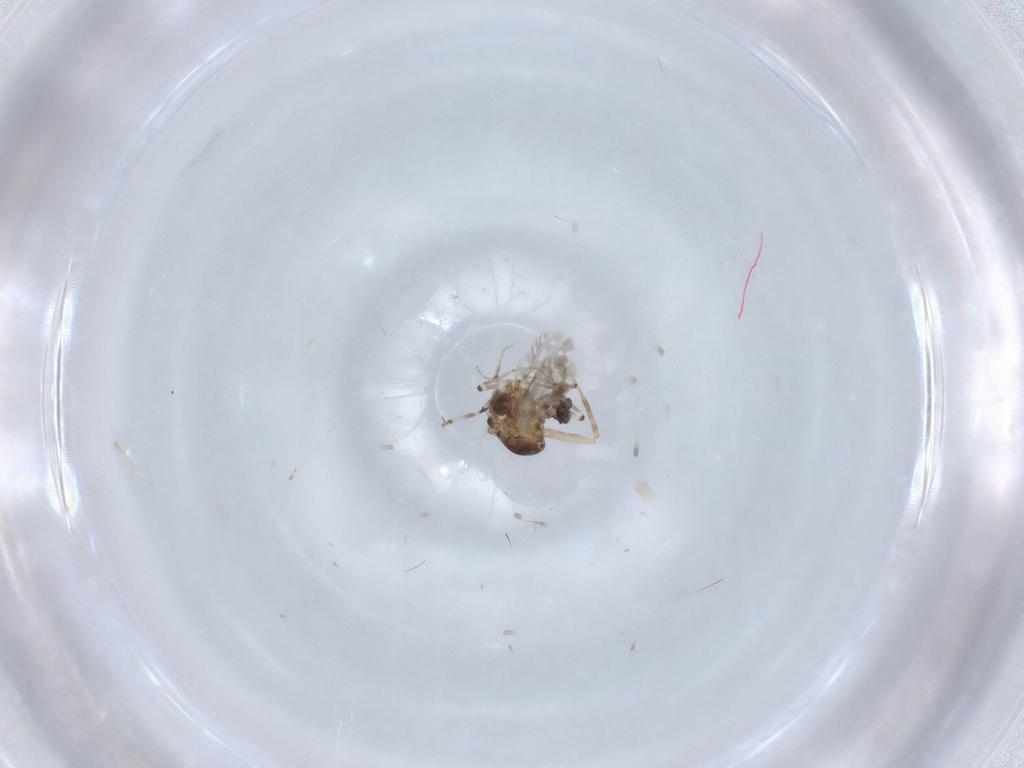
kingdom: Animalia
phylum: Arthropoda
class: Insecta
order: Diptera
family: Ceratopogonidae
